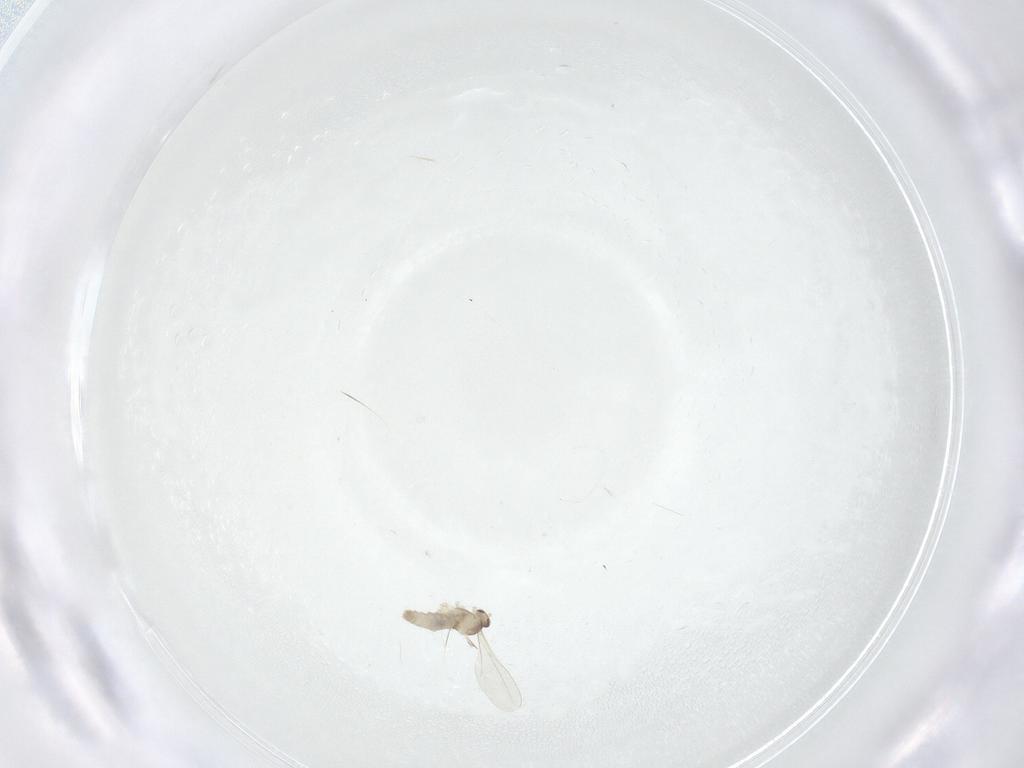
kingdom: Animalia
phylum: Arthropoda
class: Insecta
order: Diptera
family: Cecidomyiidae
